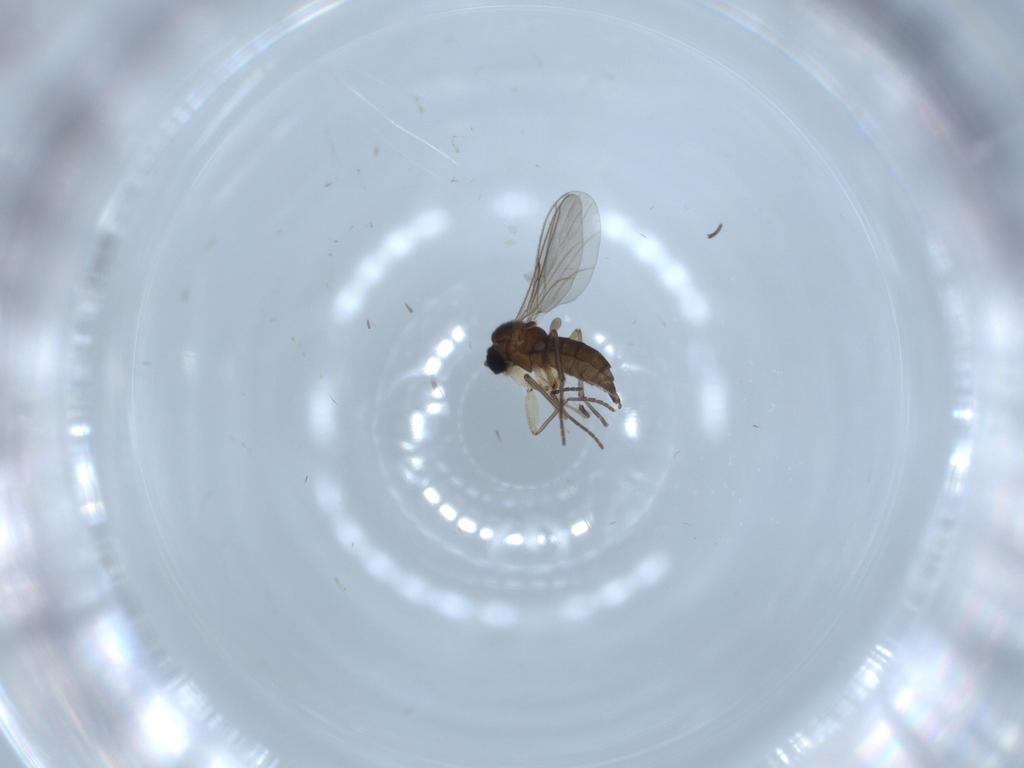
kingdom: Animalia
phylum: Arthropoda
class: Insecta
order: Diptera
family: Sciaridae
